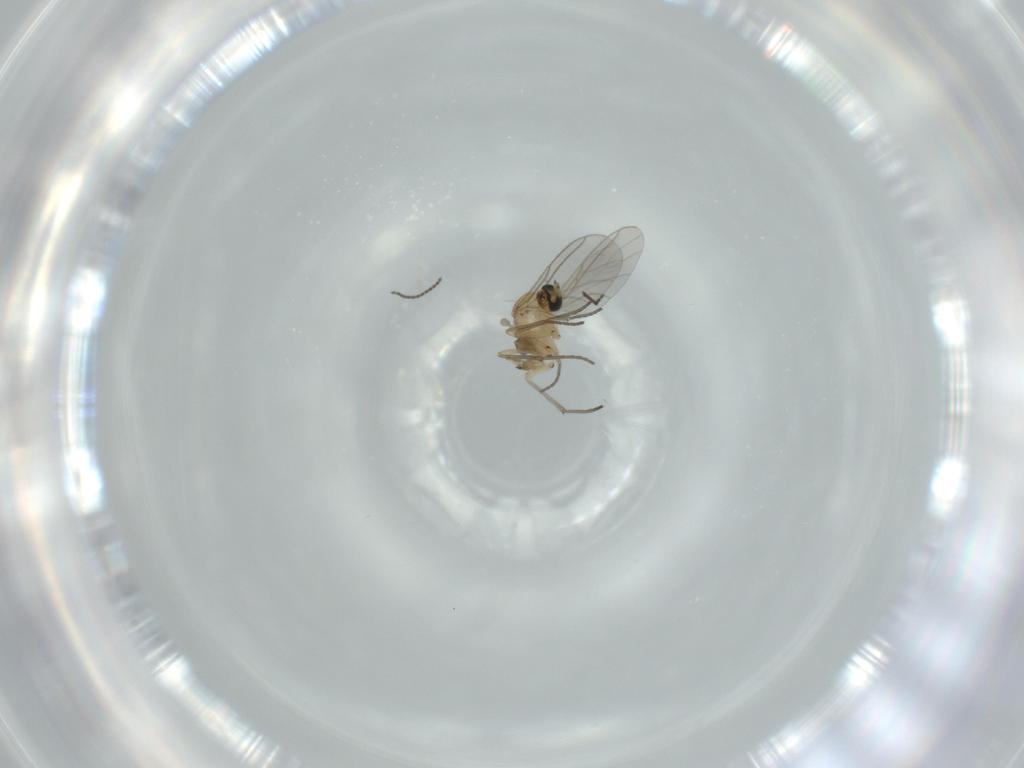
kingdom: Animalia
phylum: Arthropoda
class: Insecta
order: Diptera
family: Sciaridae
